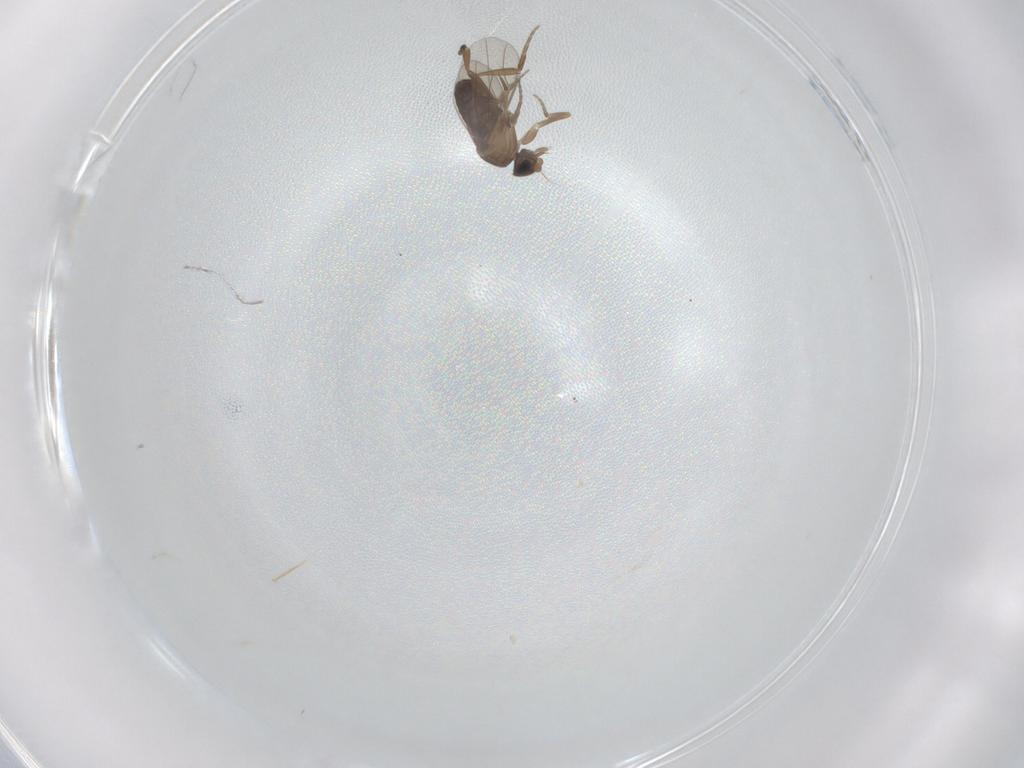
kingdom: Animalia
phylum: Arthropoda
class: Insecta
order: Diptera
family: Phoridae
